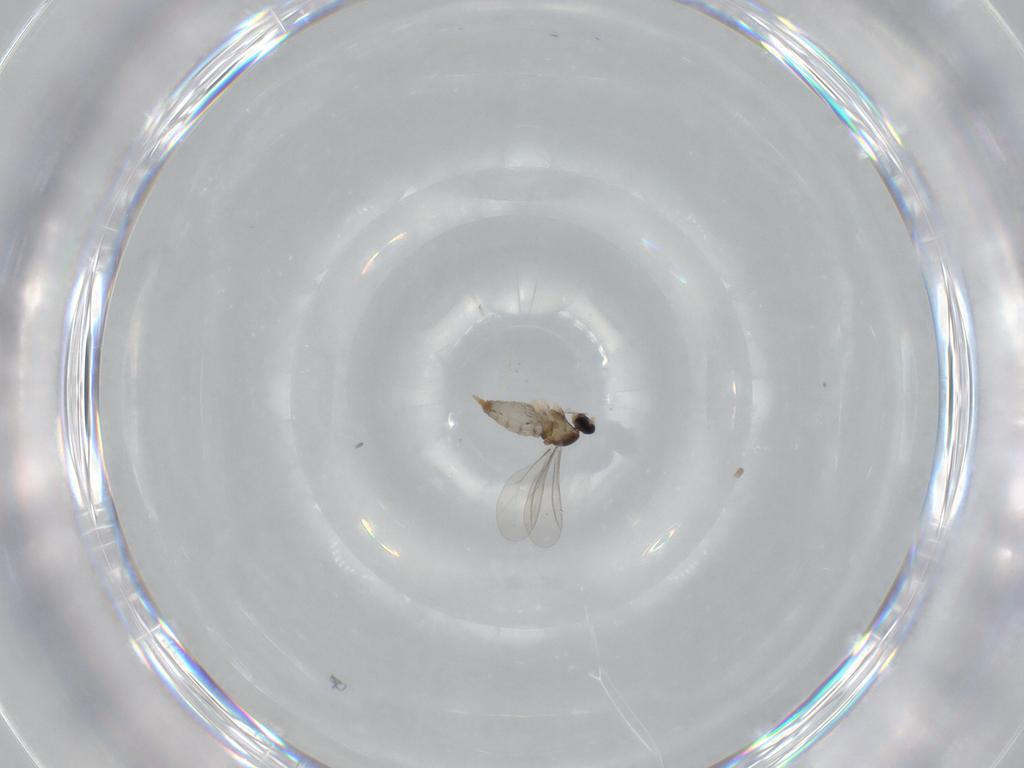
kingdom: Animalia
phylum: Arthropoda
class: Insecta
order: Diptera
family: Cecidomyiidae
